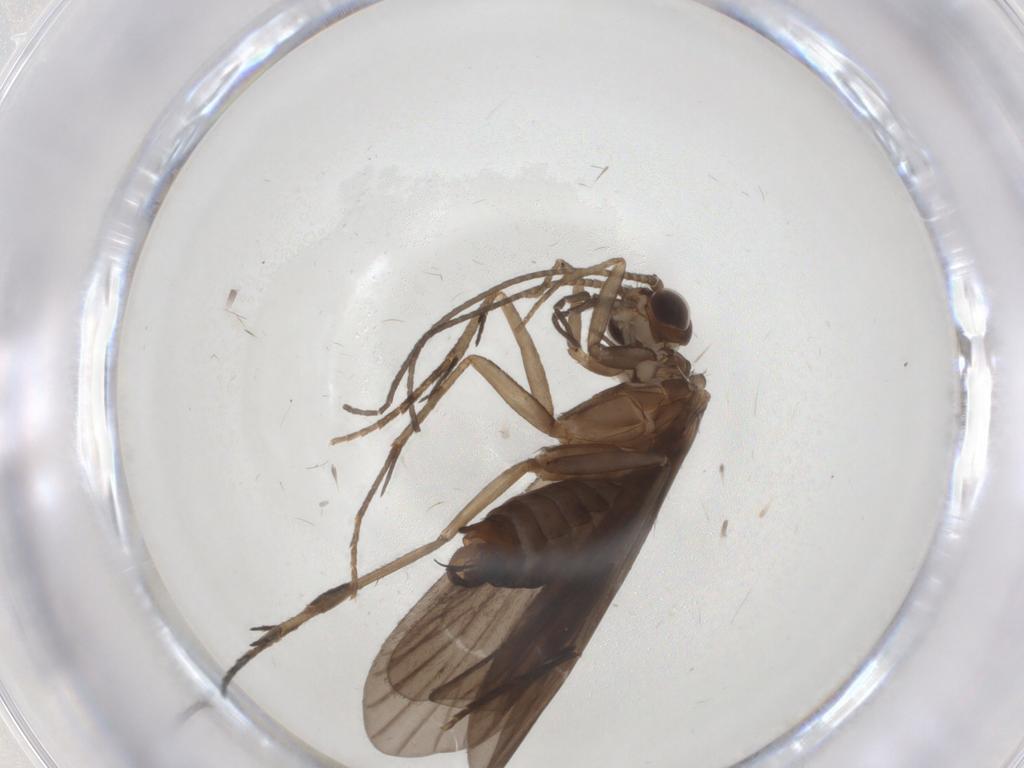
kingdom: Animalia
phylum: Arthropoda
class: Insecta
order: Trichoptera
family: Philopotamidae
